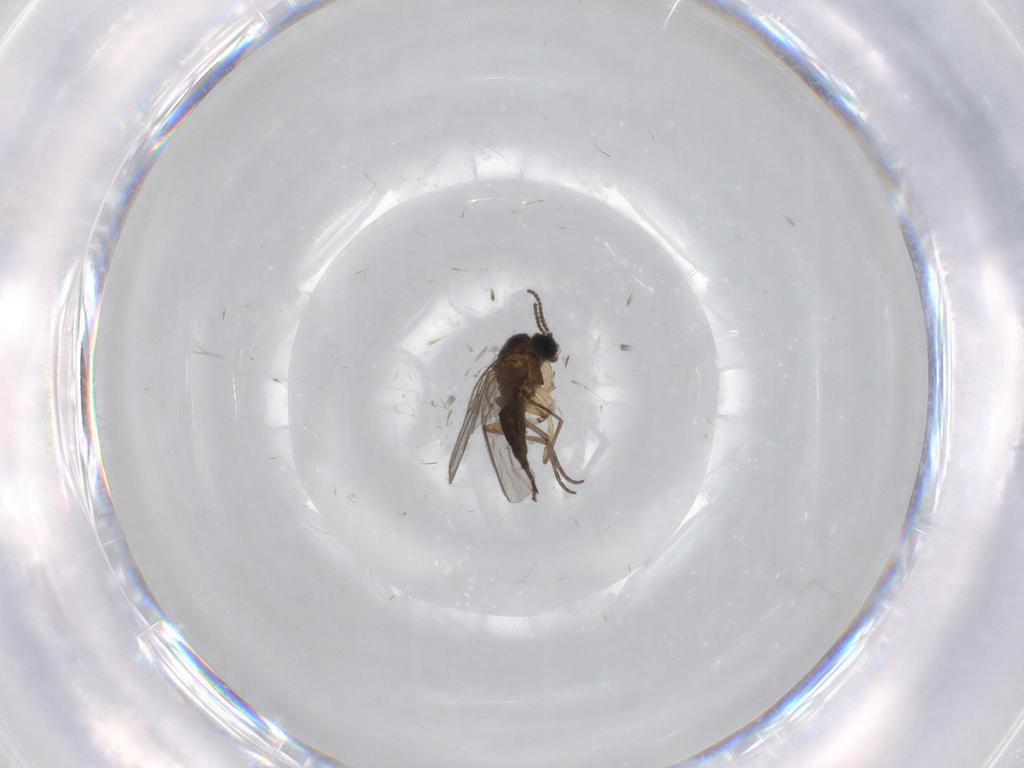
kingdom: Animalia
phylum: Arthropoda
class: Insecta
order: Diptera
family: Sciaridae
